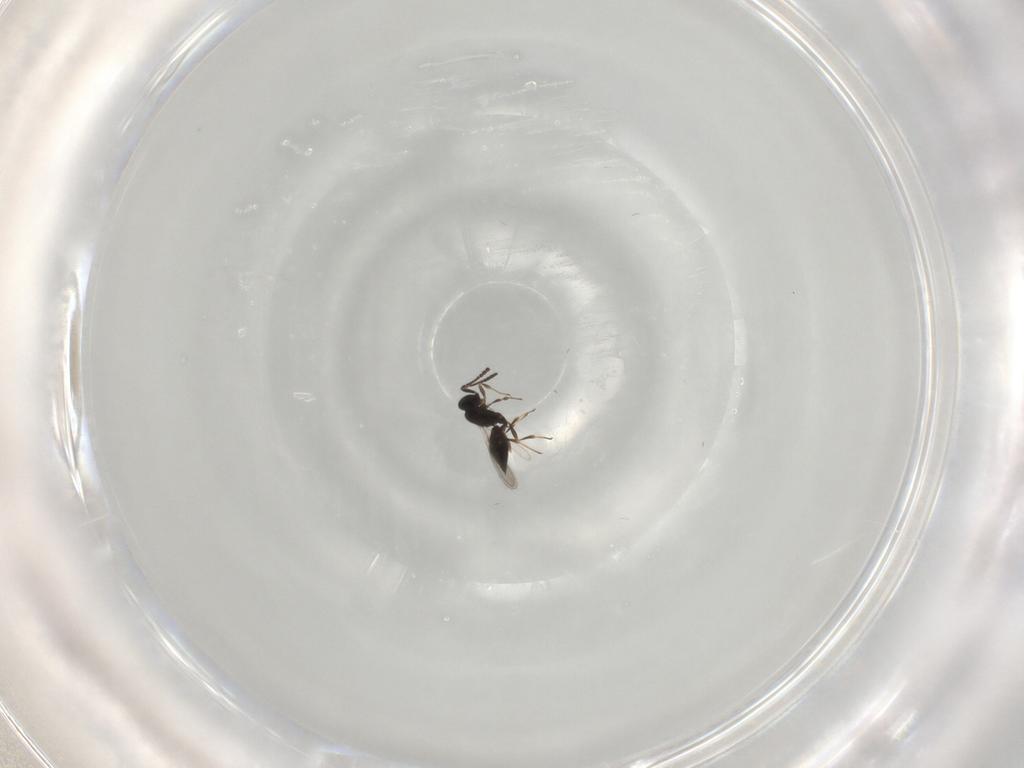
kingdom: Animalia
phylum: Arthropoda
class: Insecta
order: Hymenoptera
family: Scelionidae
